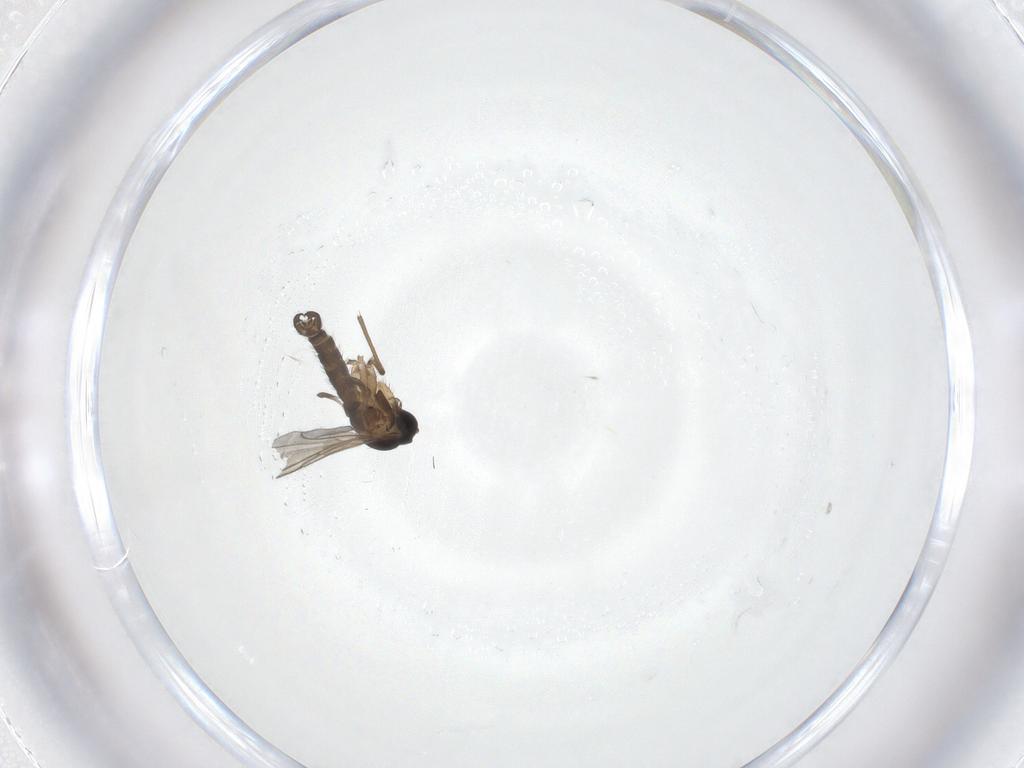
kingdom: Animalia
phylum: Arthropoda
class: Insecta
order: Diptera
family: Sciaridae
